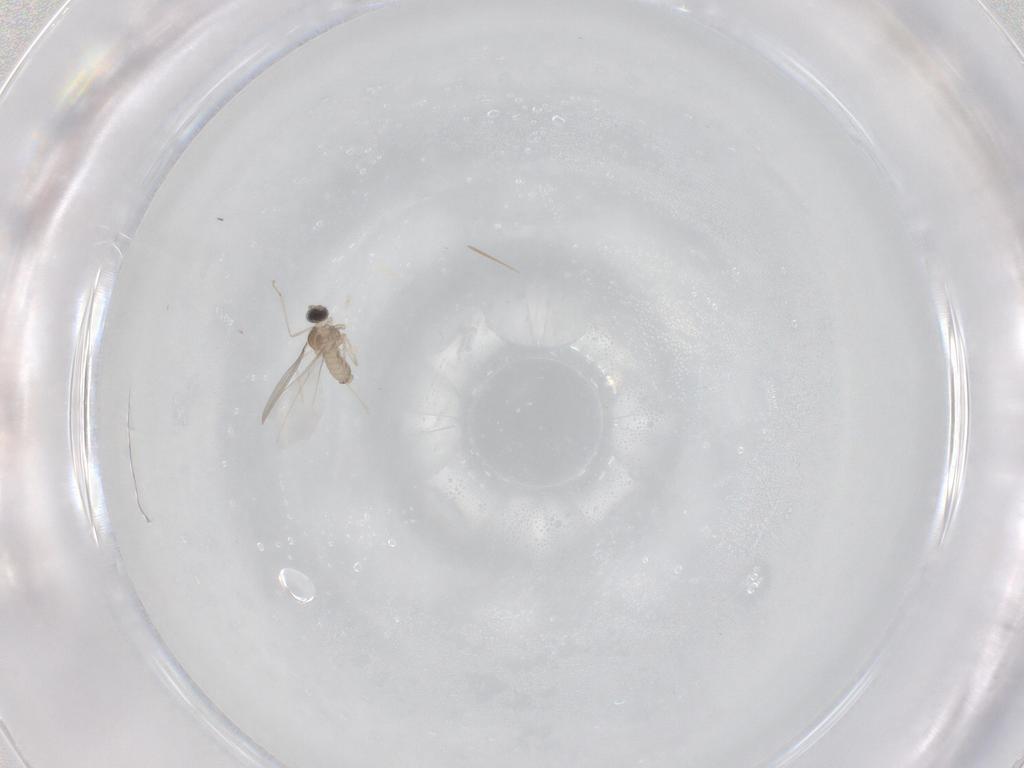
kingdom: Animalia
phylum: Arthropoda
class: Insecta
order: Diptera
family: Cecidomyiidae
